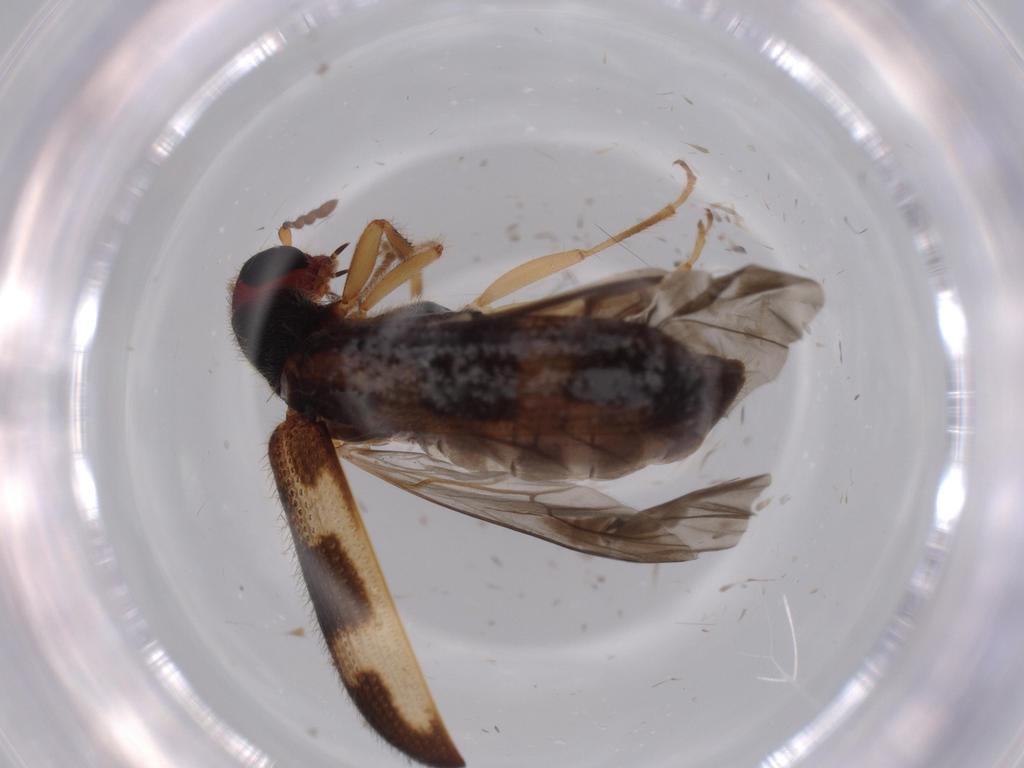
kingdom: Animalia
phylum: Arthropoda
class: Insecta
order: Coleoptera
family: Cleridae
